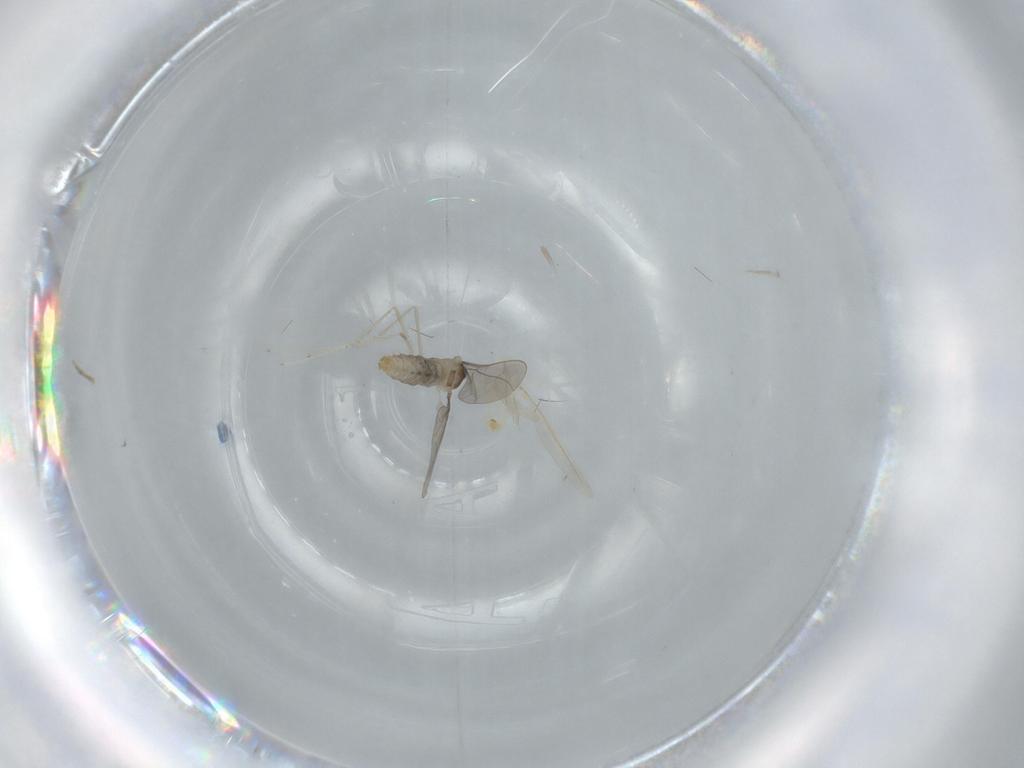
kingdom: Animalia
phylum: Arthropoda
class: Insecta
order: Diptera
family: Cecidomyiidae
